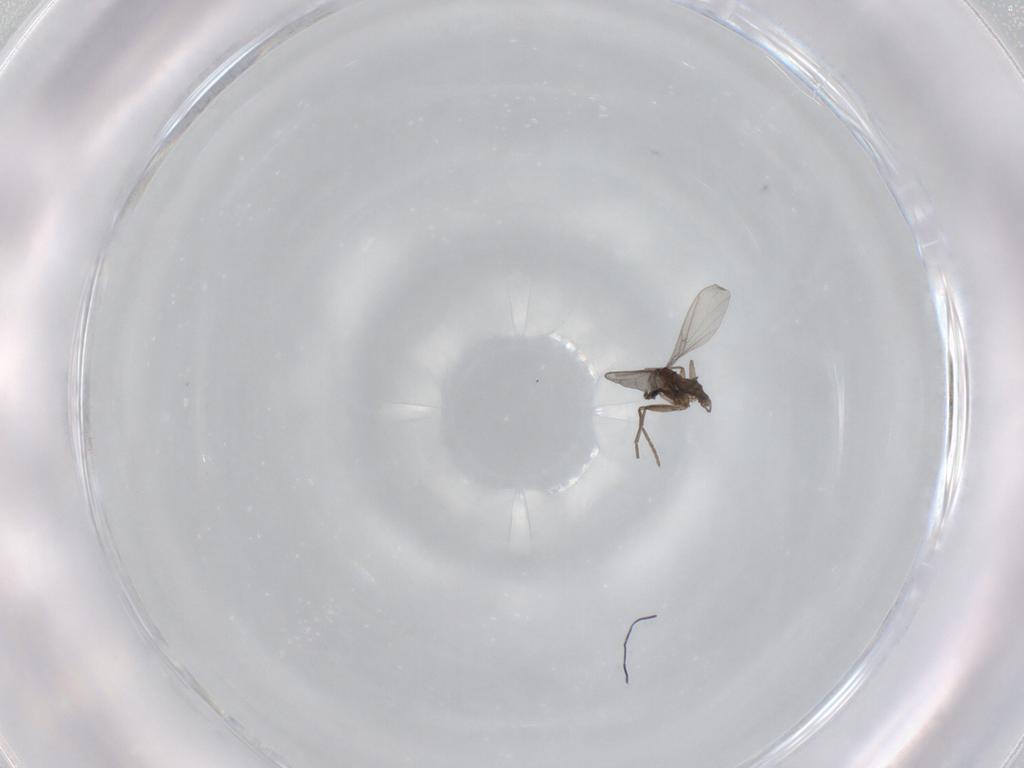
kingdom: Animalia
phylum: Arthropoda
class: Insecta
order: Diptera
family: Sciaridae
